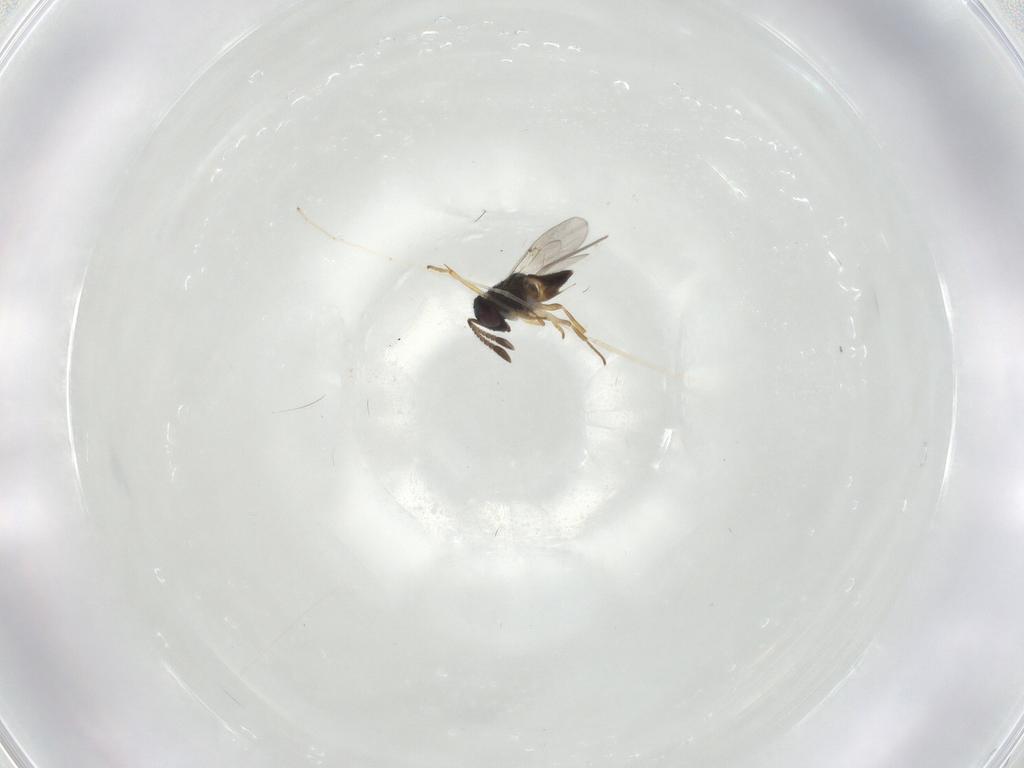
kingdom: Animalia
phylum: Arthropoda
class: Insecta
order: Diptera
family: Cecidomyiidae
